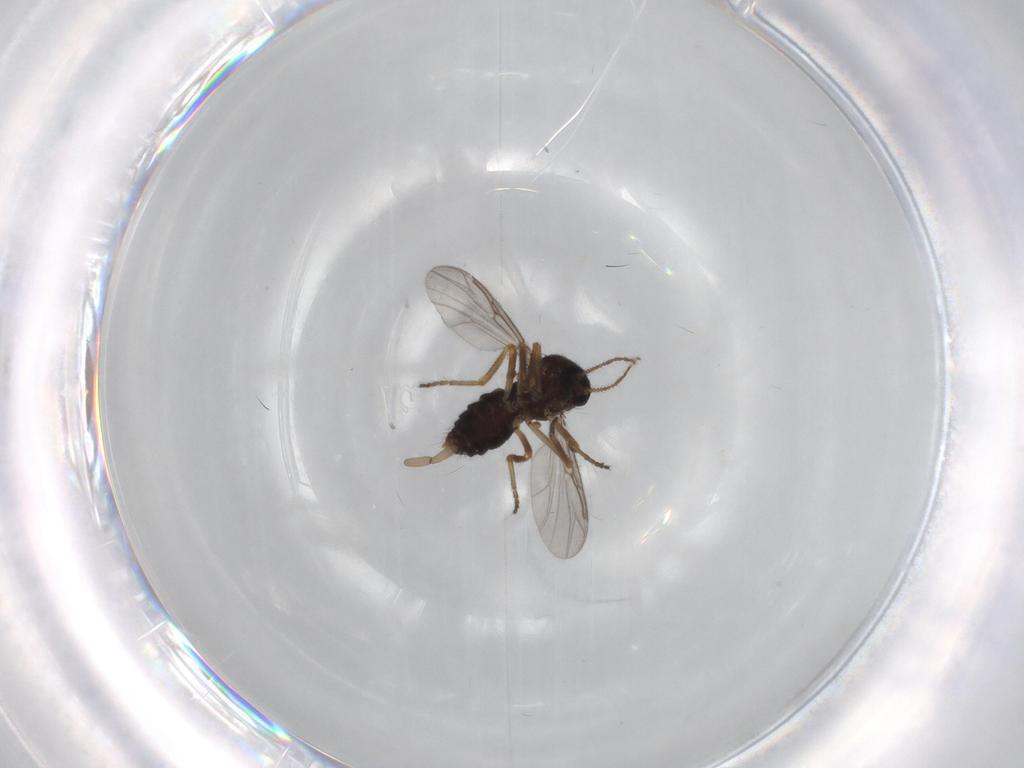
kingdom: Animalia
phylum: Arthropoda
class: Insecta
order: Diptera
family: Ceratopogonidae
